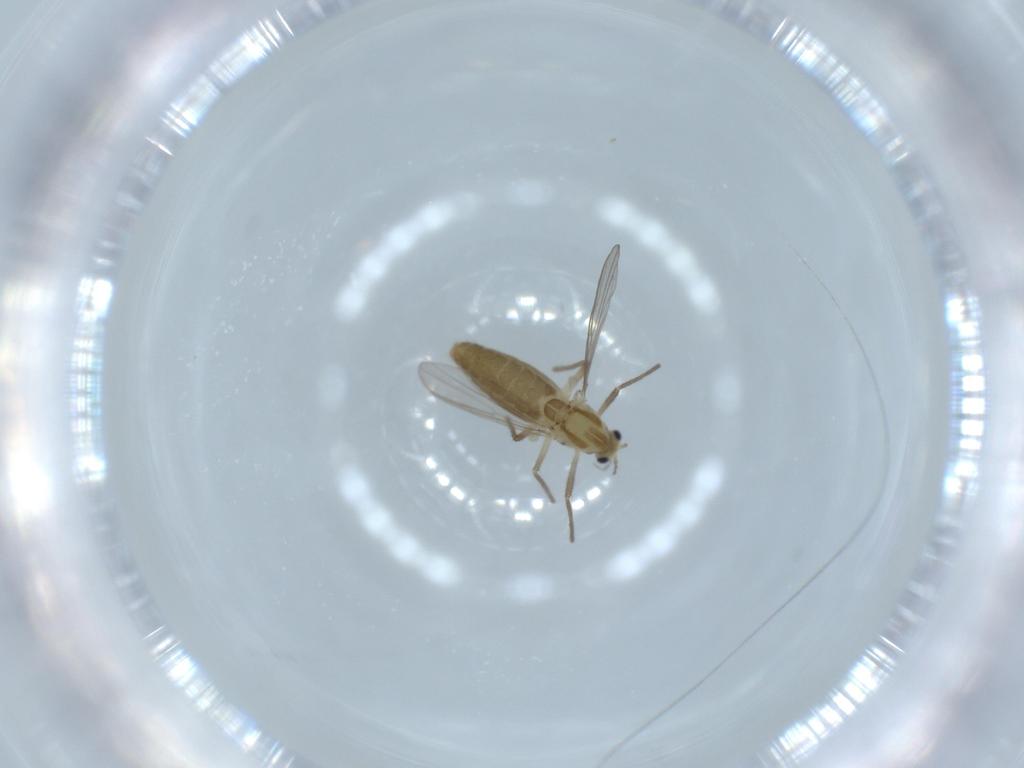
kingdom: Animalia
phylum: Arthropoda
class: Insecta
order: Diptera
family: Chironomidae
